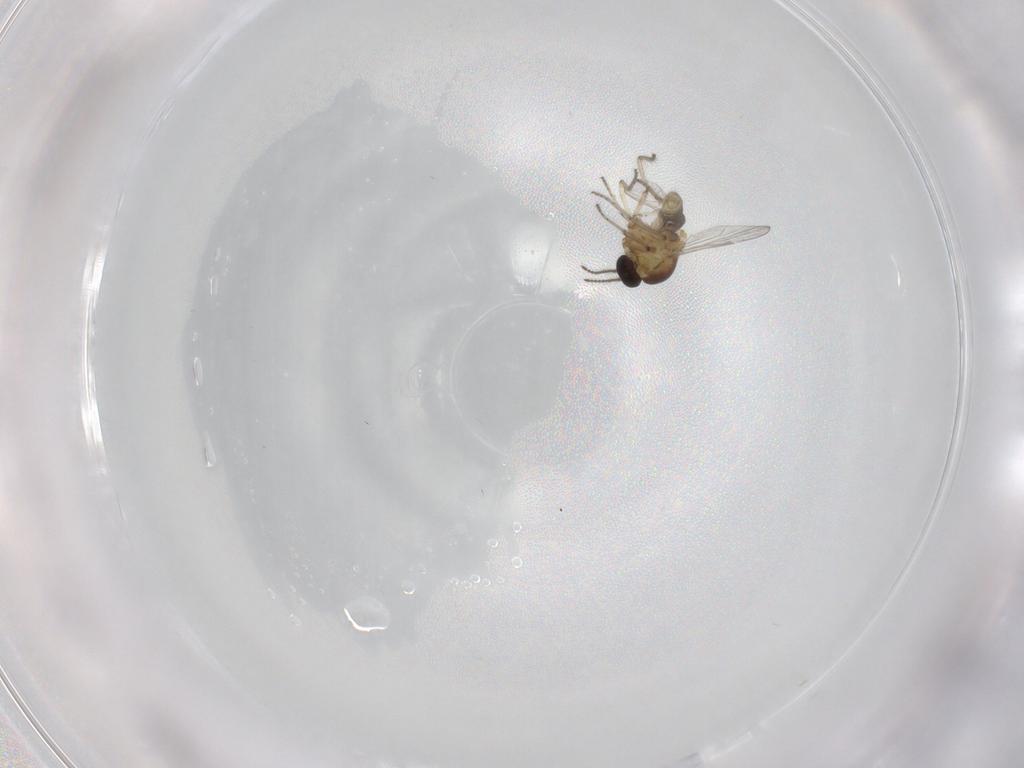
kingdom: Animalia
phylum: Arthropoda
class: Insecta
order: Diptera
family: Ceratopogonidae
